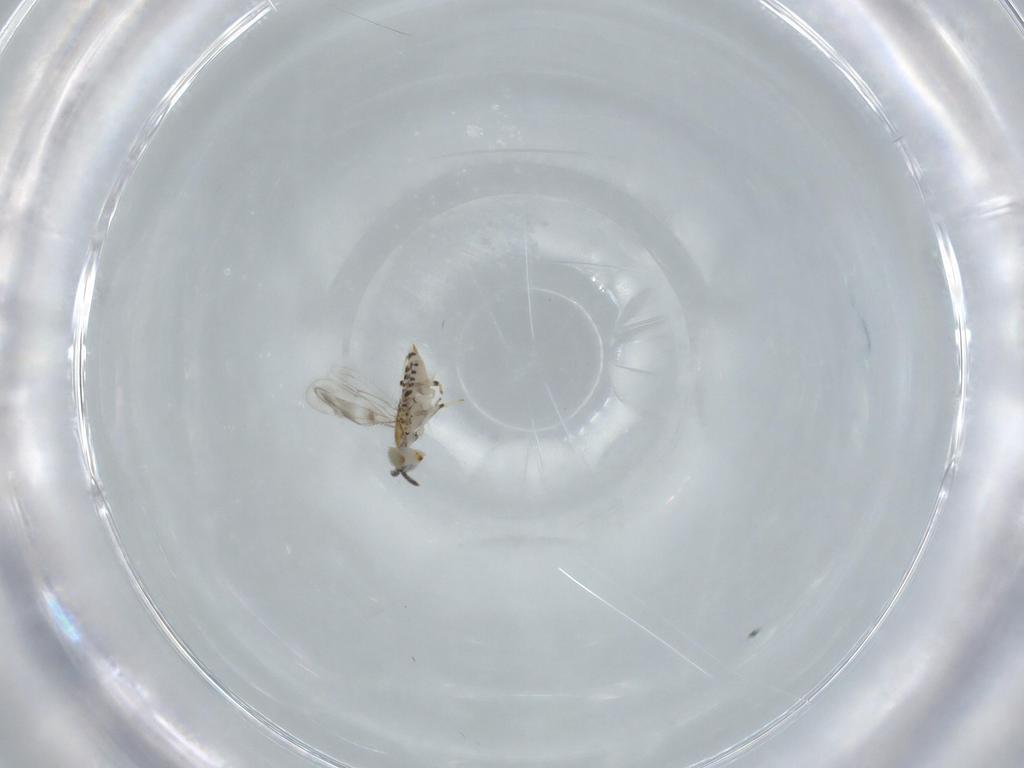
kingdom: Animalia
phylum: Arthropoda
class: Insecta
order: Hymenoptera
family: Aphelinidae
